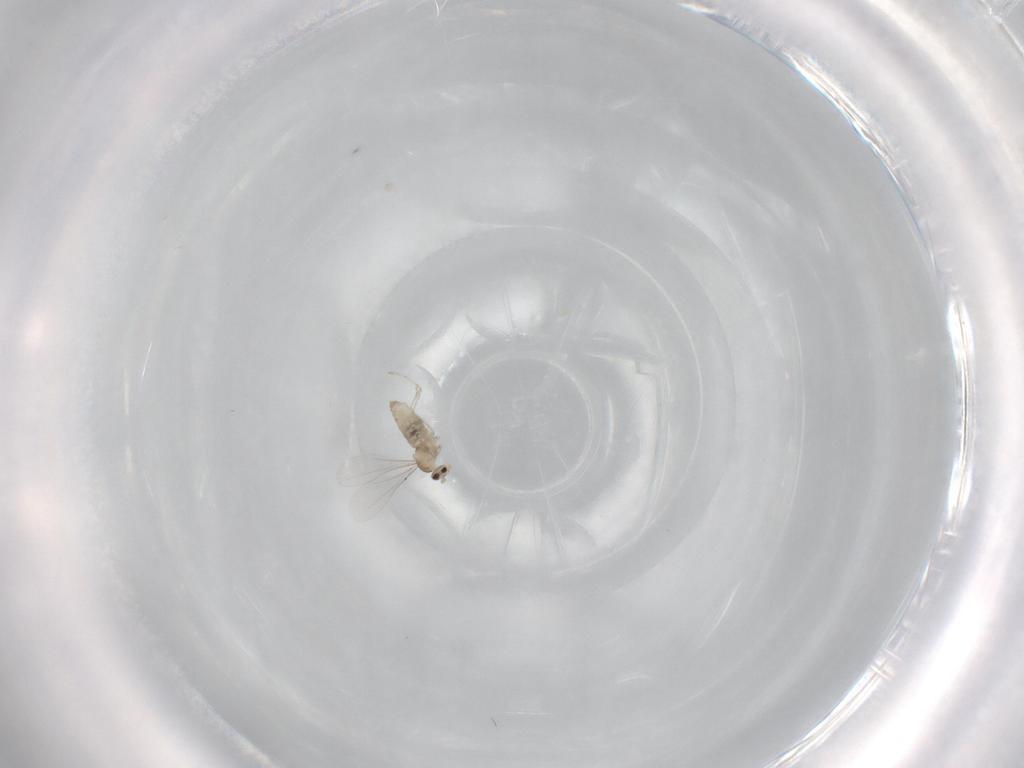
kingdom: Animalia
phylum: Arthropoda
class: Insecta
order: Diptera
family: Cecidomyiidae
